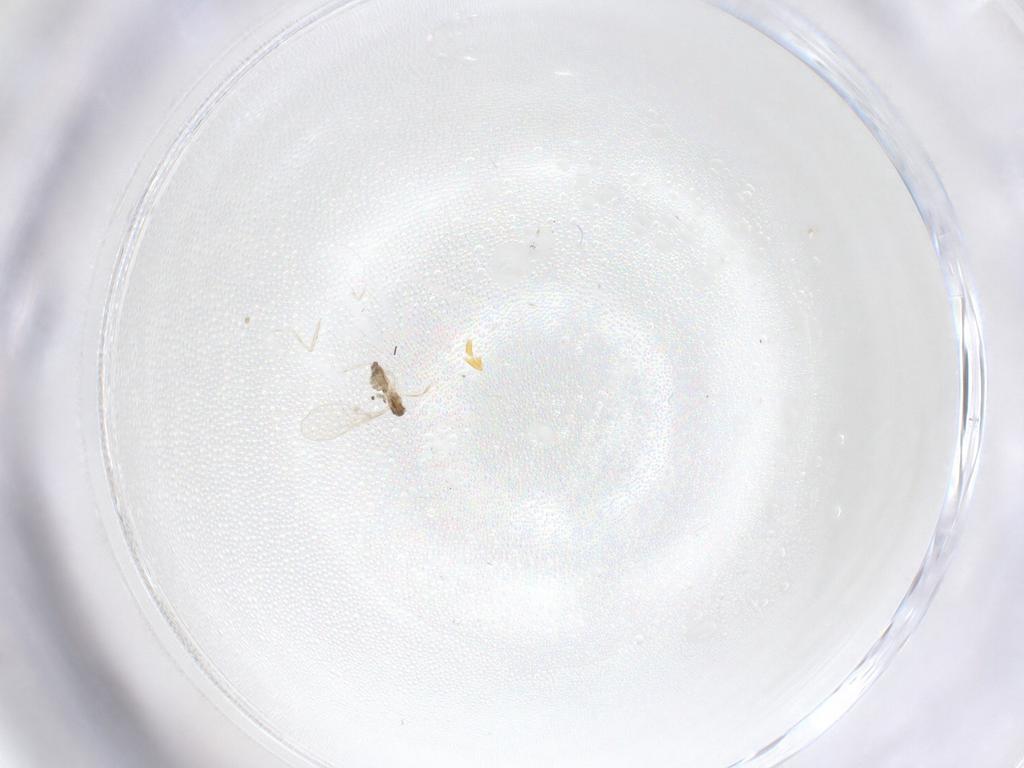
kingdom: Animalia
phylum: Arthropoda
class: Insecta
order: Diptera
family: Cecidomyiidae
